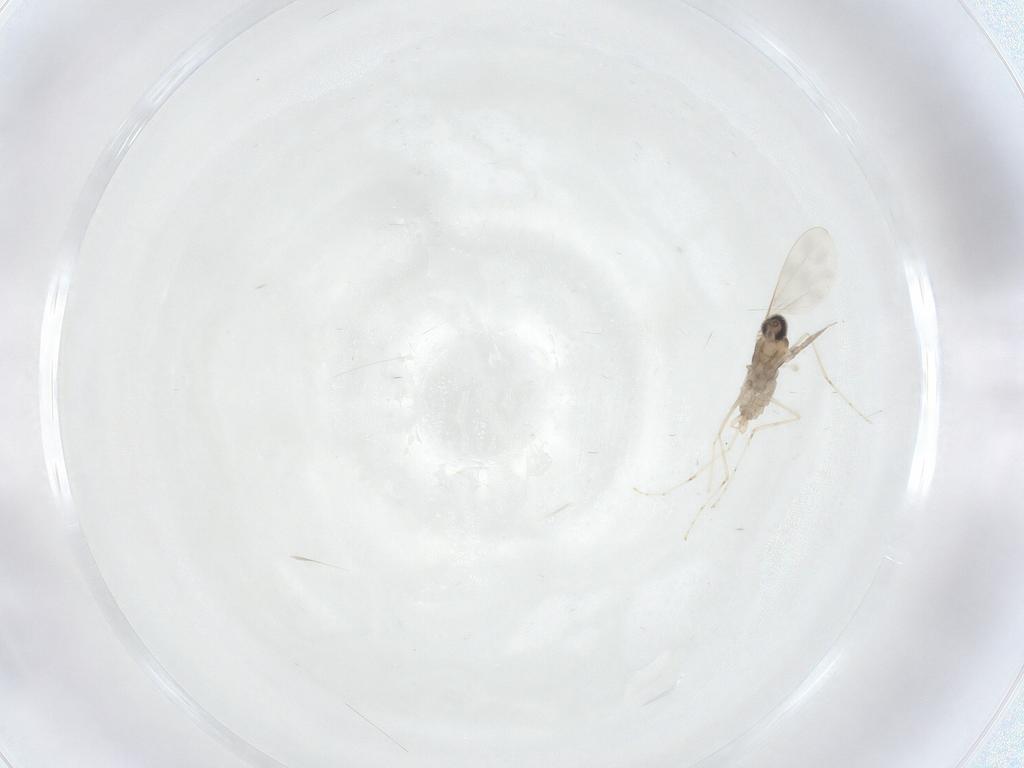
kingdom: Animalia
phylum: Arthropoda
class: Insecta
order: Diptera
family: Cecidomyiidae
